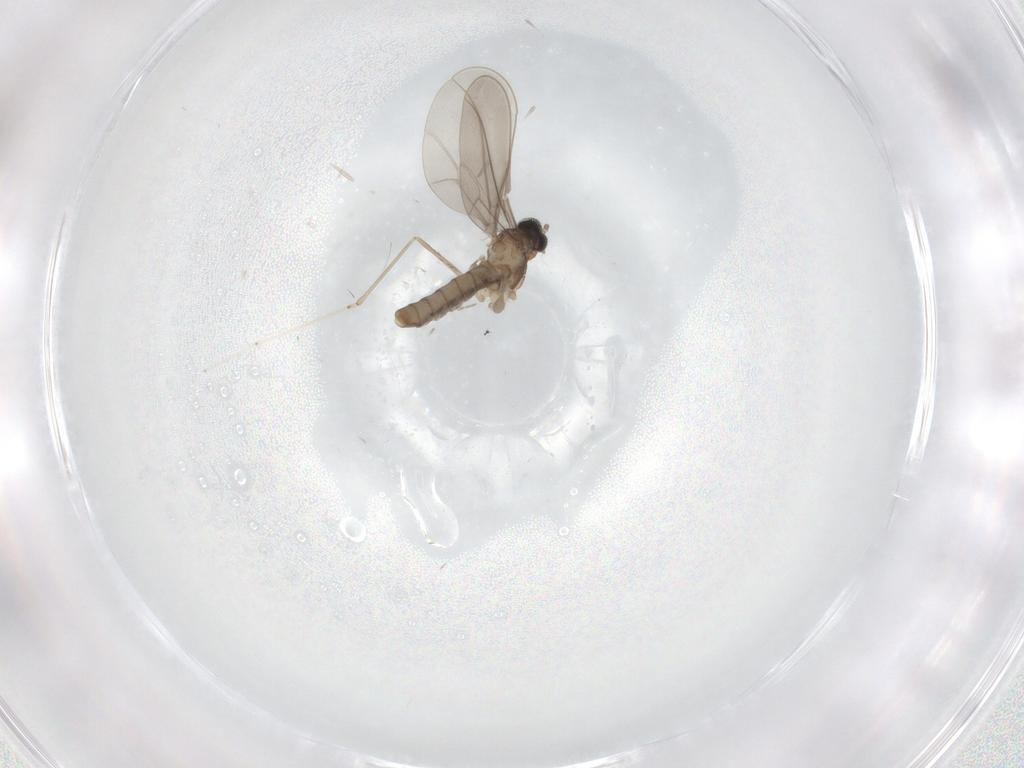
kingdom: Animalia
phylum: Arthropoda
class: Insecta
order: Diptera
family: Cecidomyiidae
